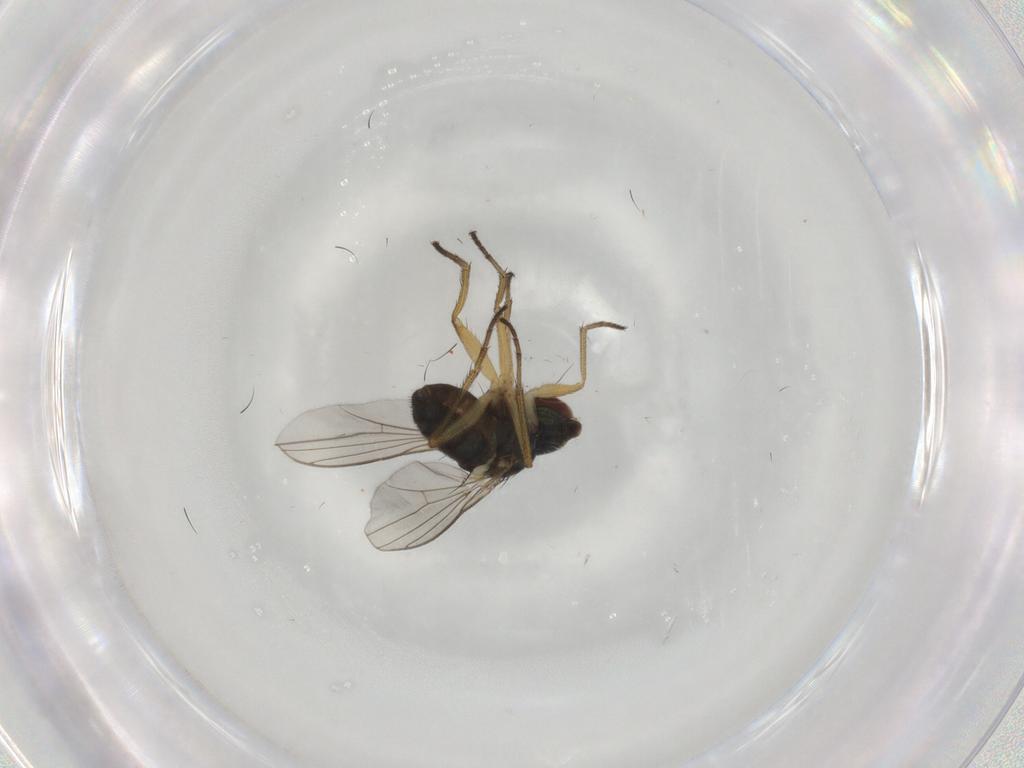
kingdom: Animalia
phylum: Arthropoda
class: Insecta
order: Diptera
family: Dolichopodidae
